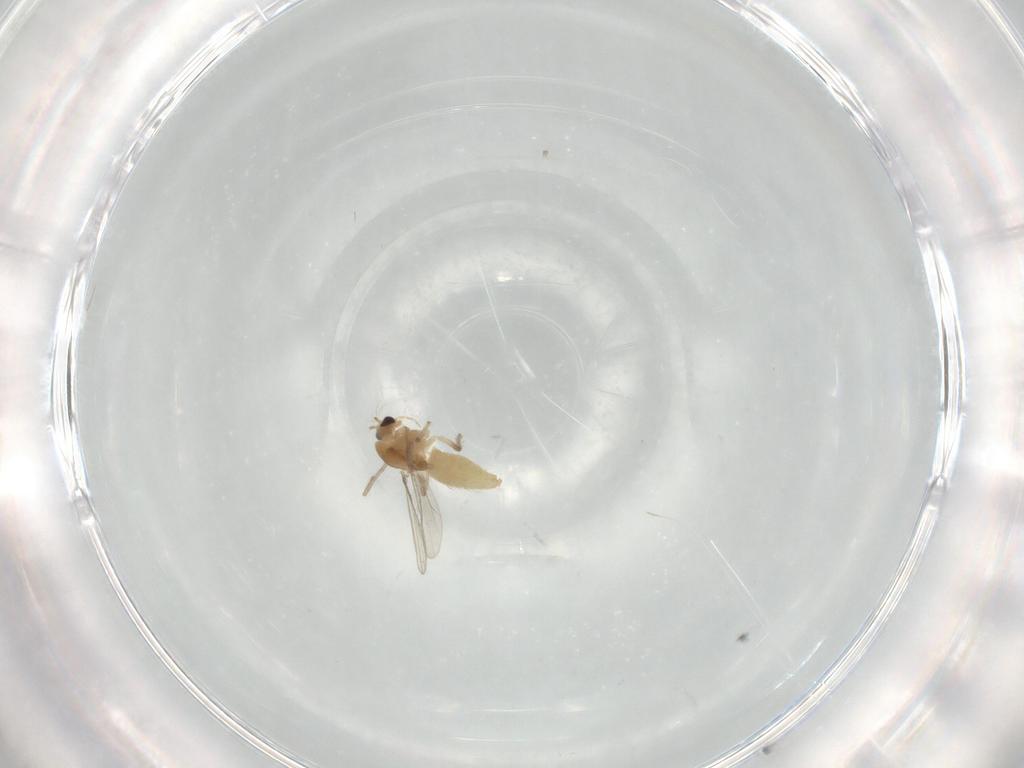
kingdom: Animalia
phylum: Arthropoda
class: Insecta
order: Diptera
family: Chironomidae
